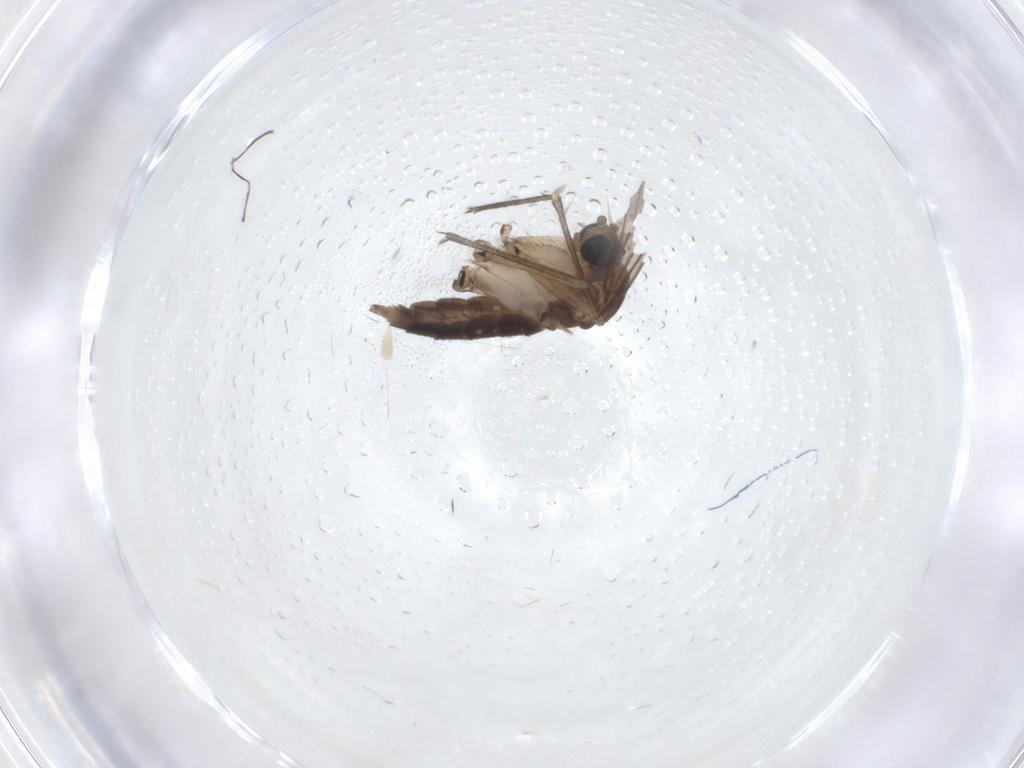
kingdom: Animalia
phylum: Arthropoda
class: Insecta
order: Diptera
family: Sciaridae
